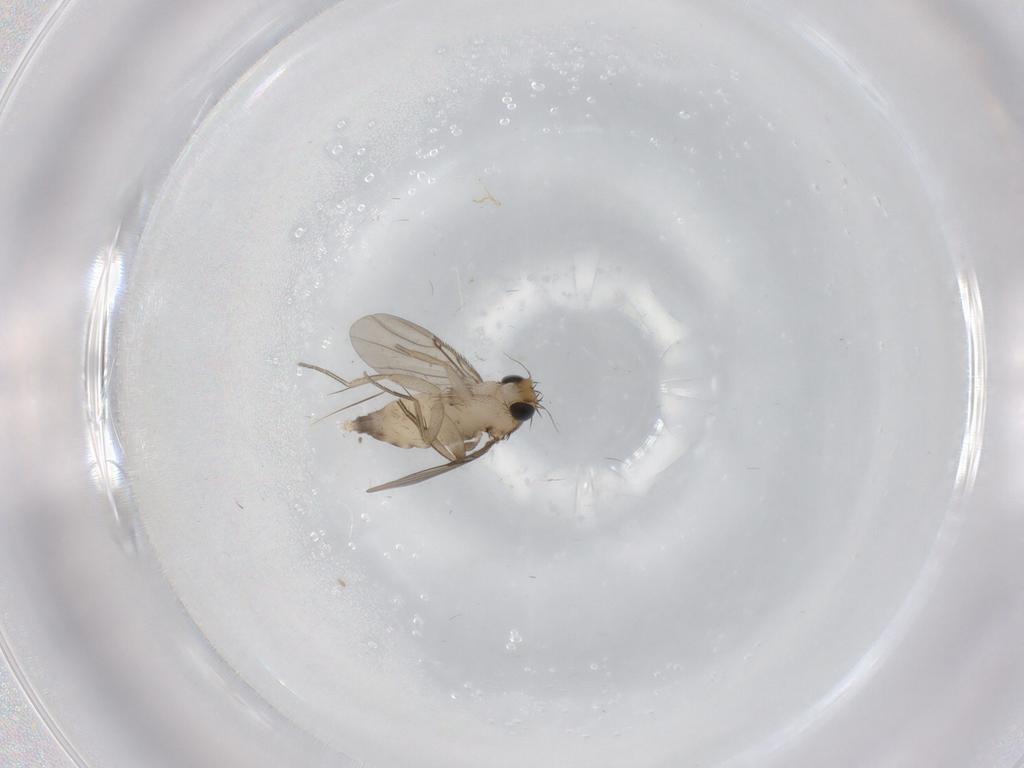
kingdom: Animalia
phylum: Arthropoda
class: Insecta
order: Diptera
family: Phoridae
